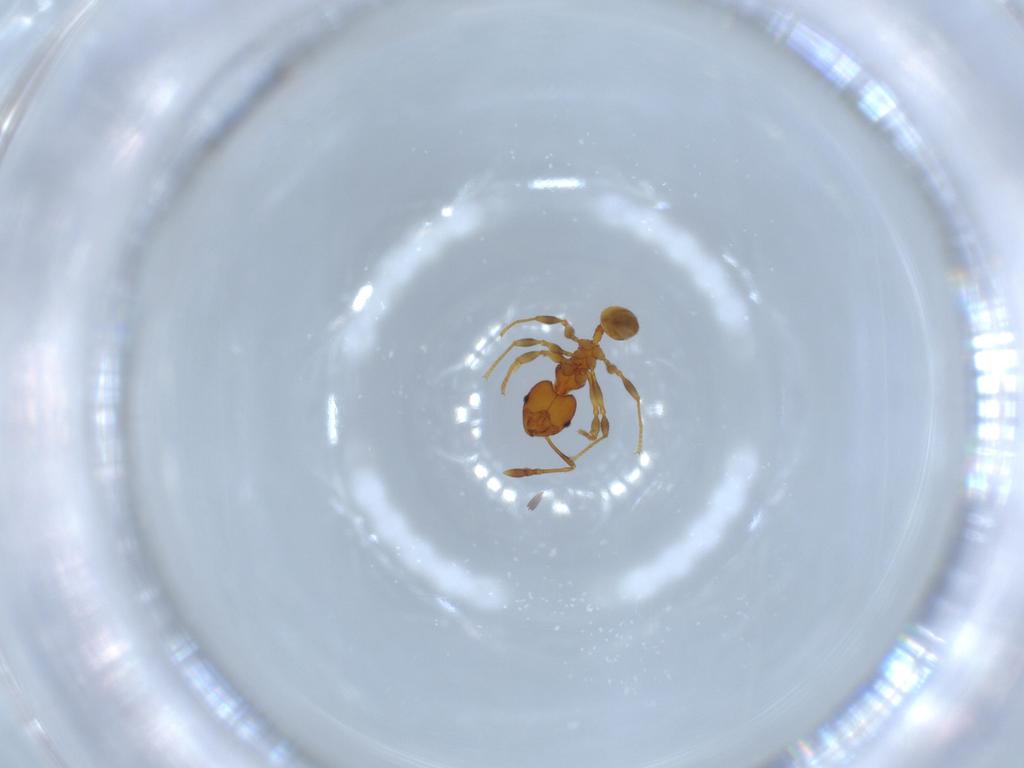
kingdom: Animalia
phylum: Arthropoda
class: Insecta
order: Hymenoptera
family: Formicidae
